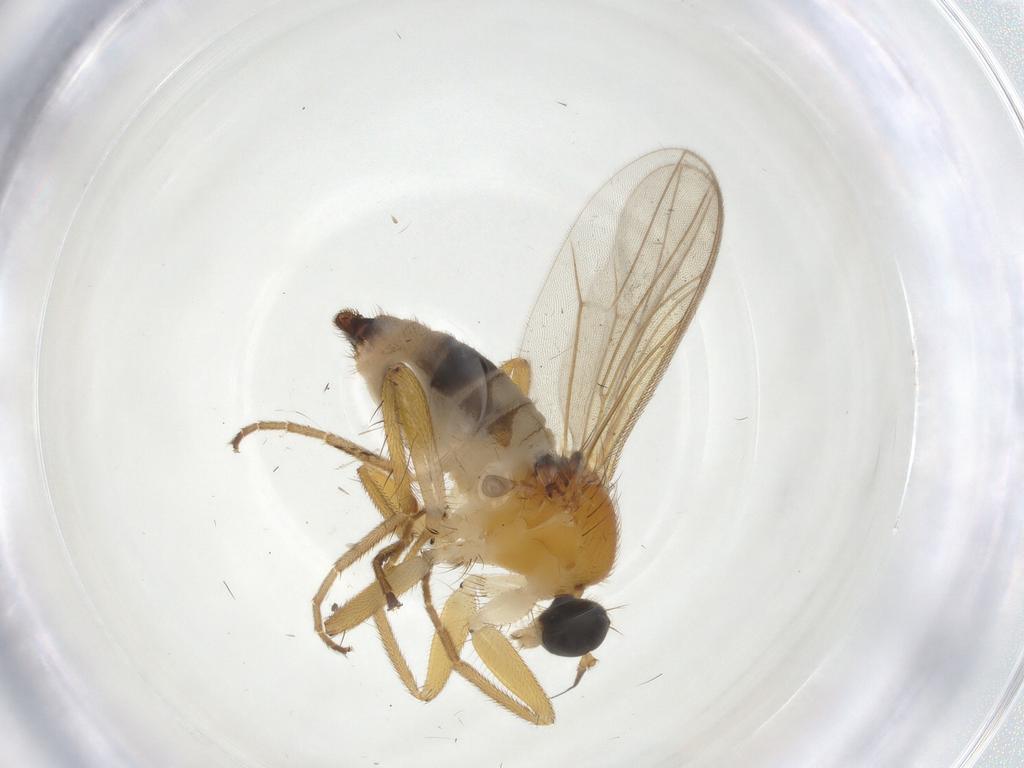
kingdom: Animalia
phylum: Arthropoda
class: Insecta
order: Diptera
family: Hybotidae
